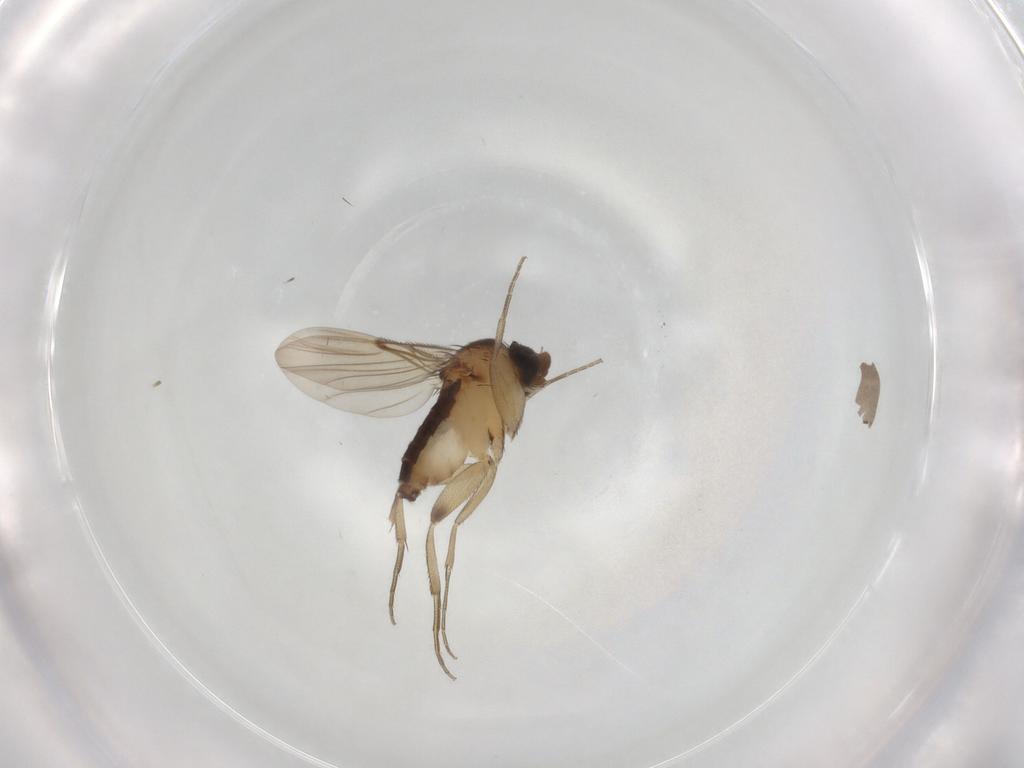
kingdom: Animalia
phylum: Arthropoda
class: Insecta
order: Diptera
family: Phoridae
